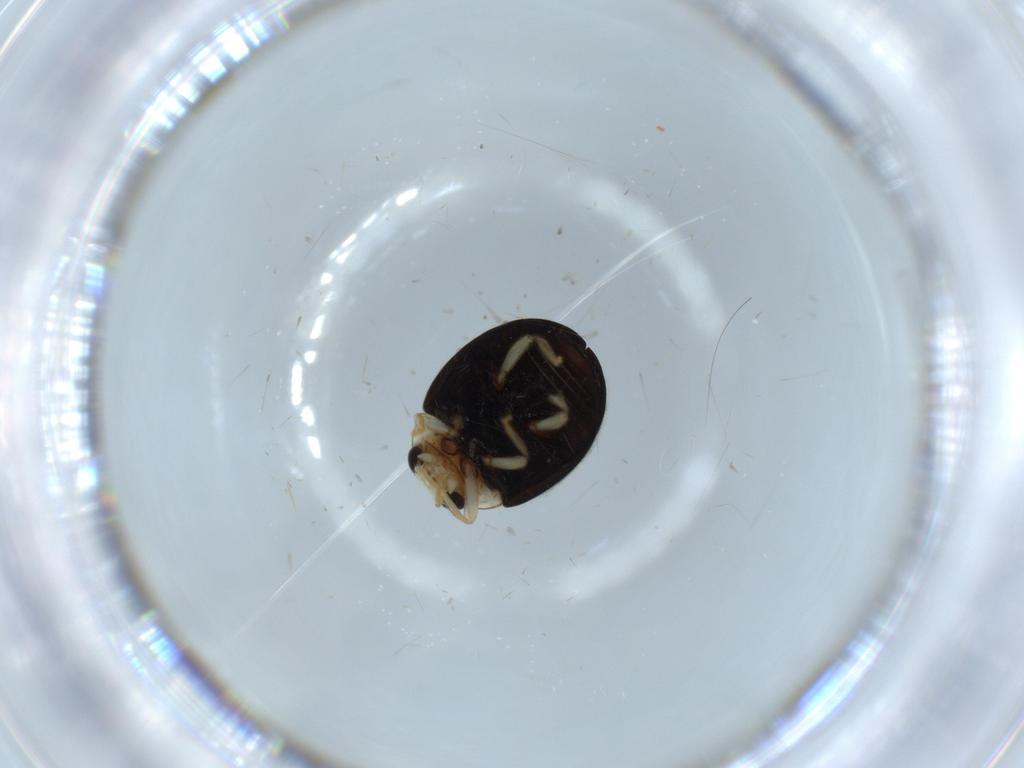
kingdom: Animalia
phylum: Arthropoda
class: Insecta
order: Coleoptera
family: Coccinellidae
